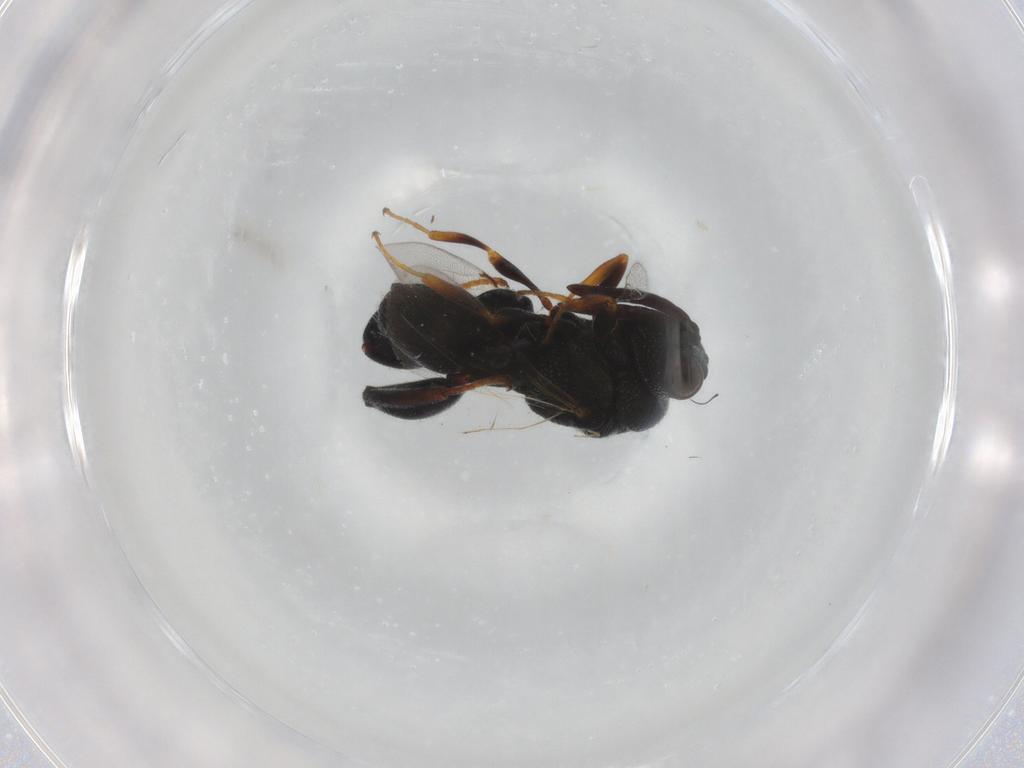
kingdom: Animalia
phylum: Arthropoda
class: Insecta
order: Hymenoptera
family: Chalcididae
